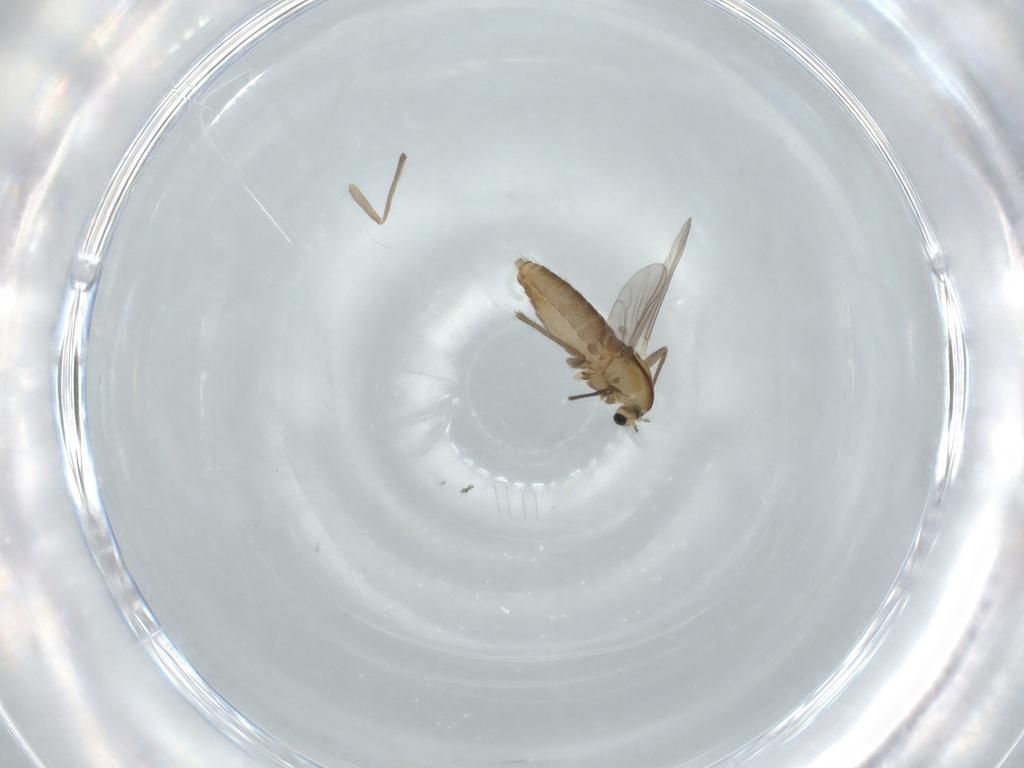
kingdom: Animalia
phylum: Arthropoda
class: Insecta
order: Diptera
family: Chironomidae
